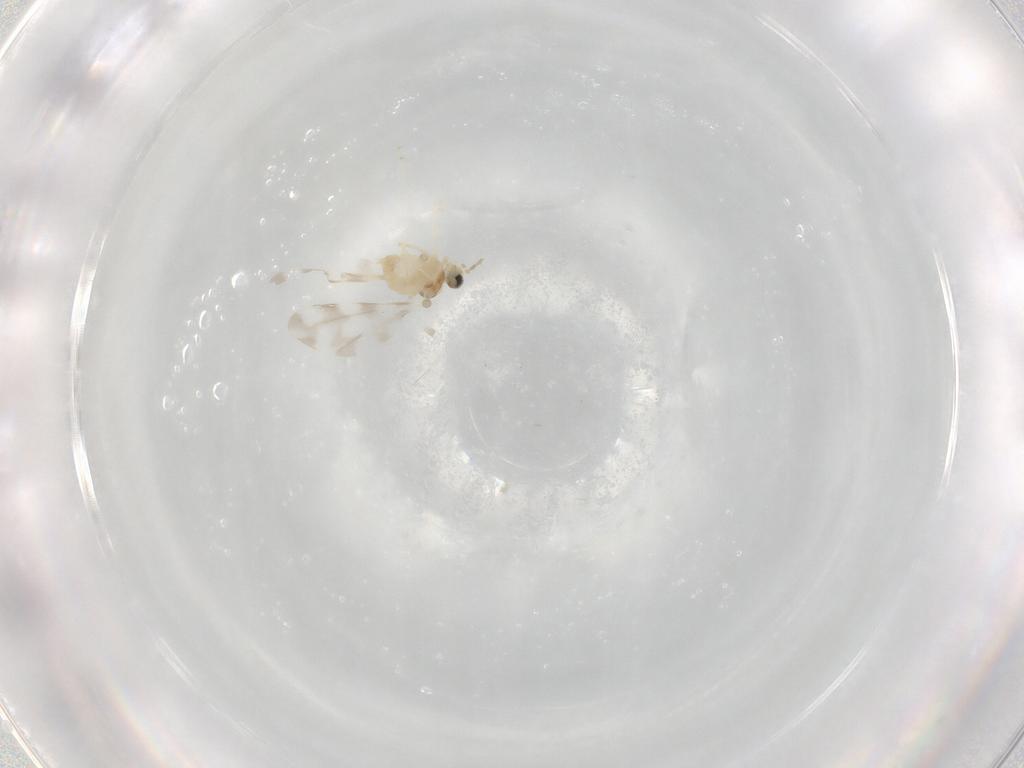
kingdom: Animalia
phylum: Arthropoda
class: Insecta
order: Diptera
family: Cecidomyiidae
